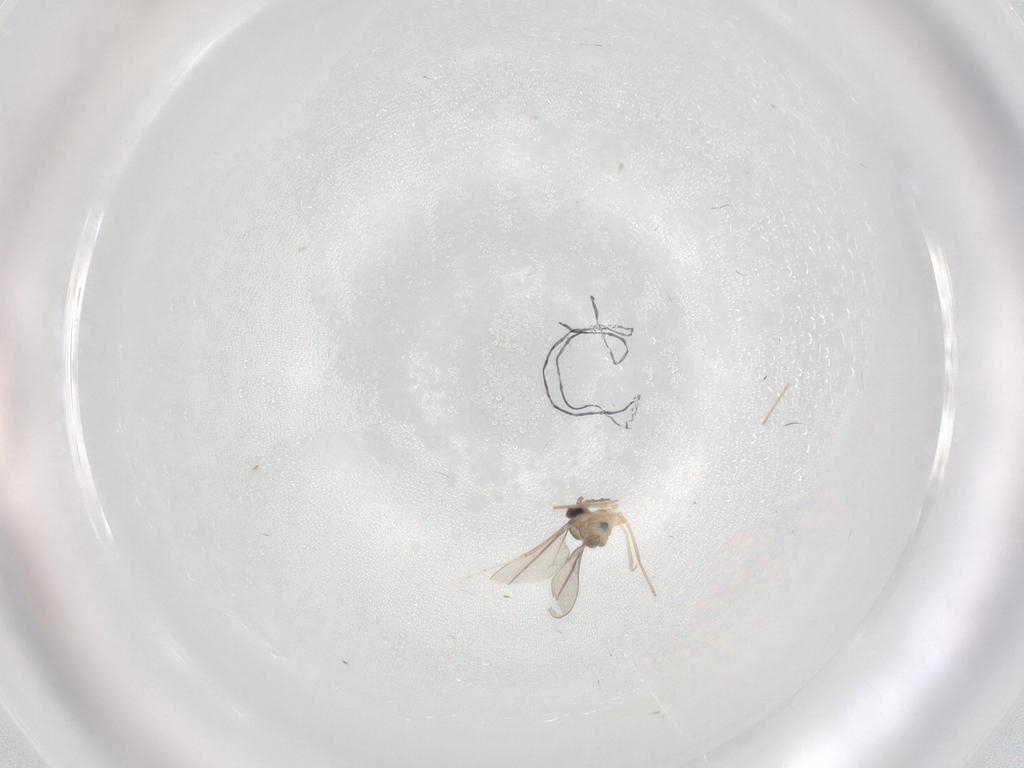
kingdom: Animalia
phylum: Arthropoda
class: Insecta
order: Diptera
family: Cecidomyiidae
